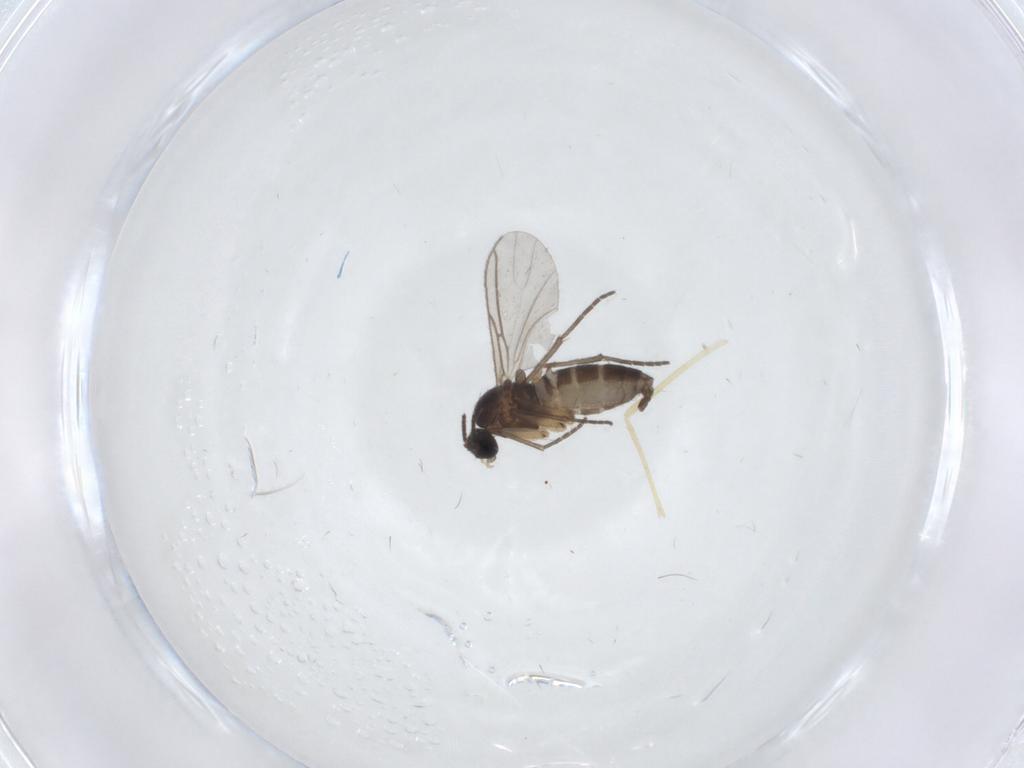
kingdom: Animalia
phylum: Arthropoda
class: Insecta
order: Diptera
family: Sciaridae
